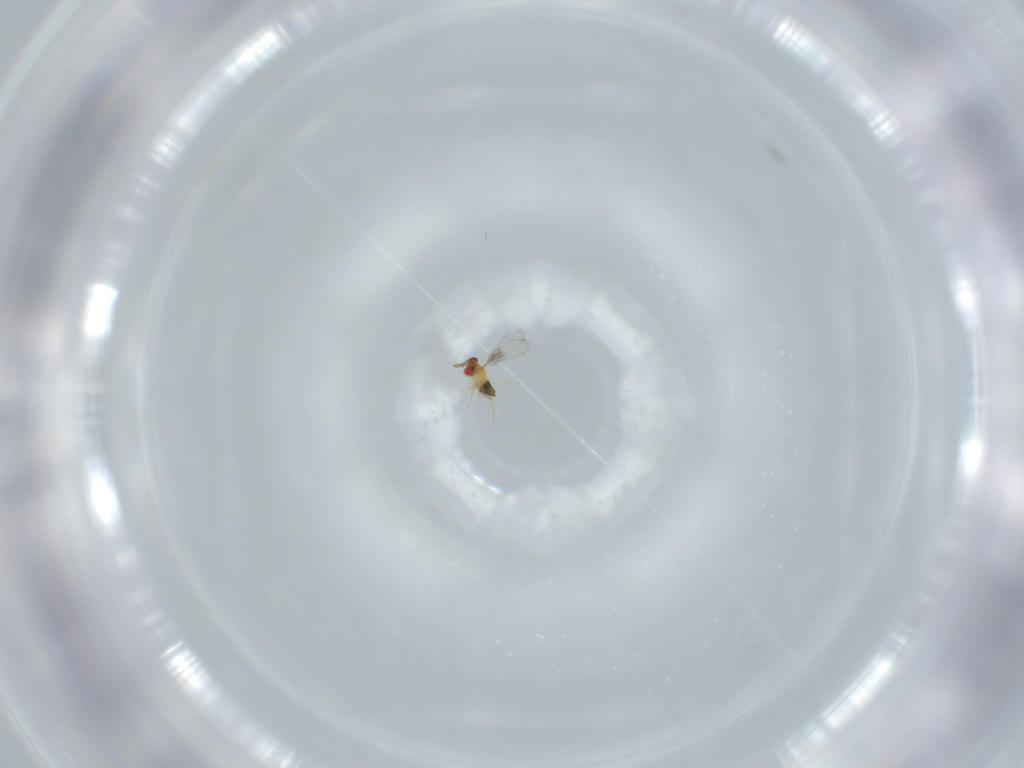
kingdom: Animalia
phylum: Arthropoda
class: Insecta
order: Hymenoptera
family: Trichogrammatidae
